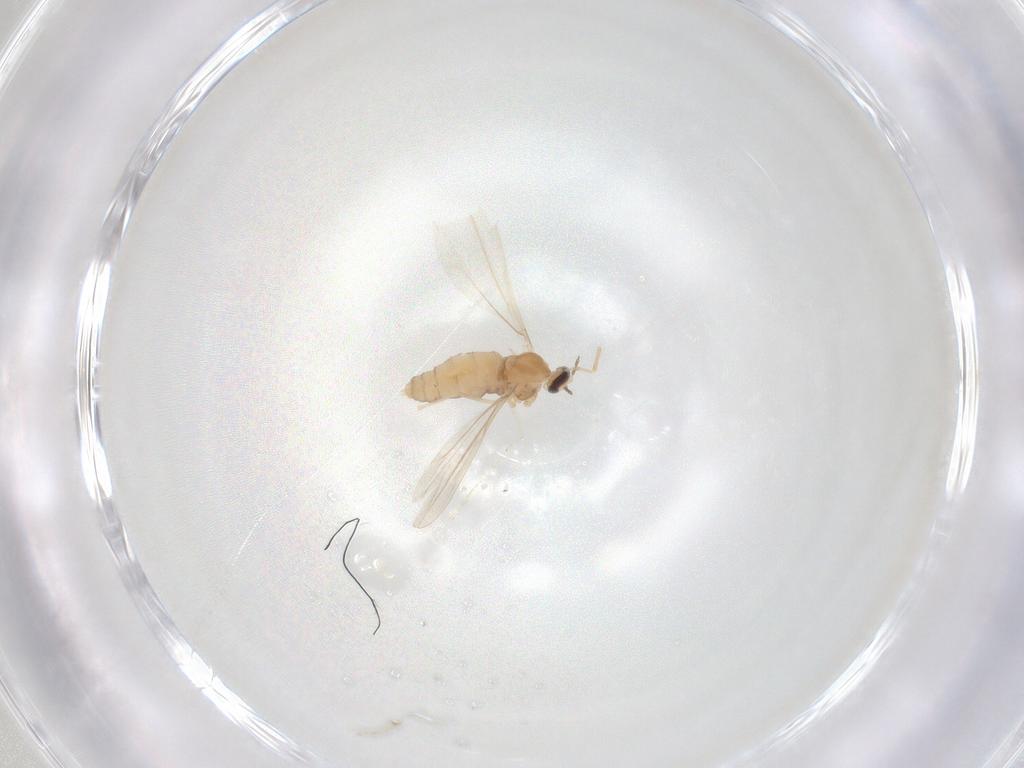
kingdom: Animalia
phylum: Arthropoda
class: Insecta
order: Diptera
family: Cecidomyiidae
